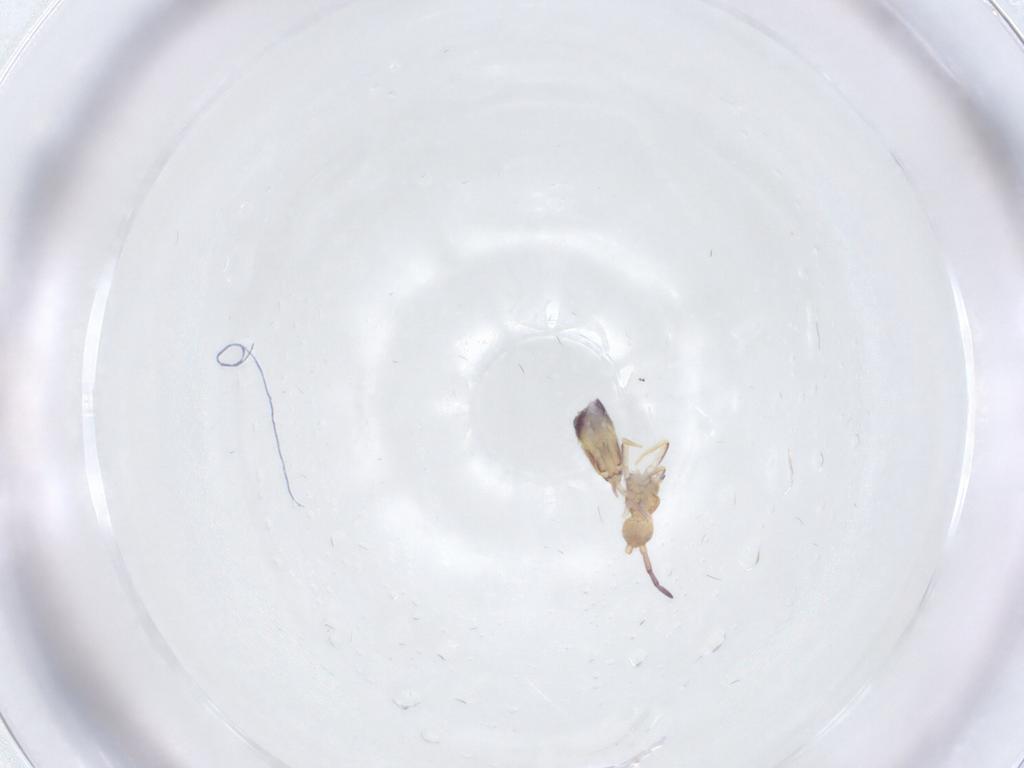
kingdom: Animalia
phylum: Arthropoda
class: Collembola
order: Entomobryomorpha
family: Entomobryidae
